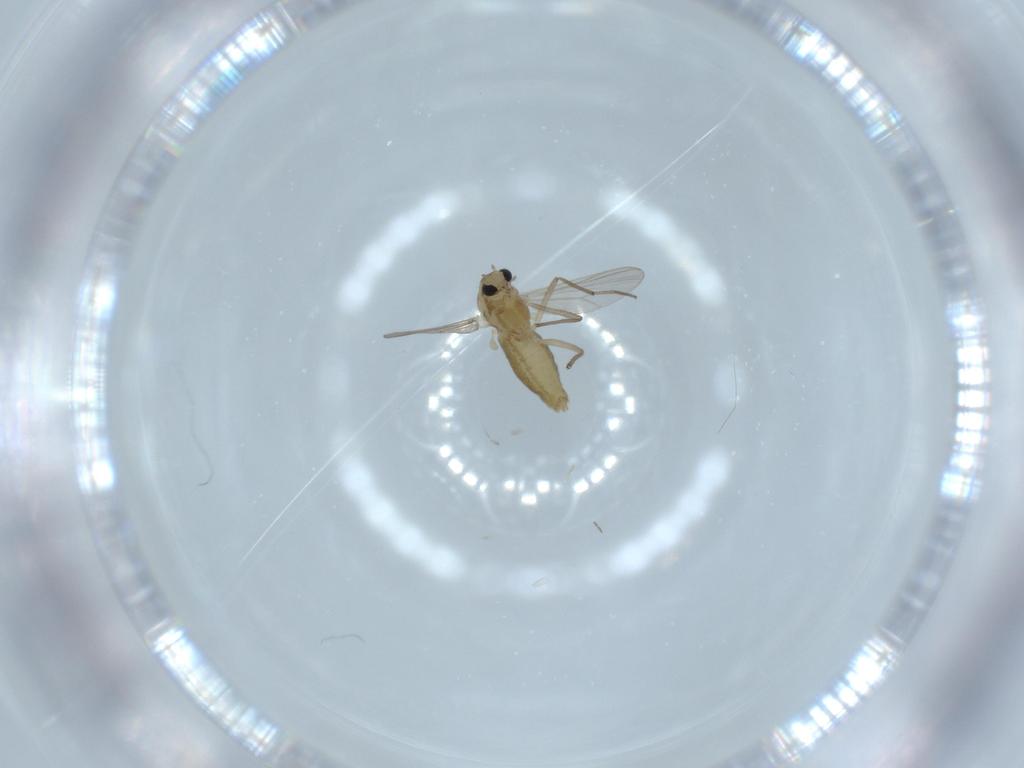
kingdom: Animalia
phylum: Arthropoda
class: Insecta
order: Diptera
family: Chironomidae
